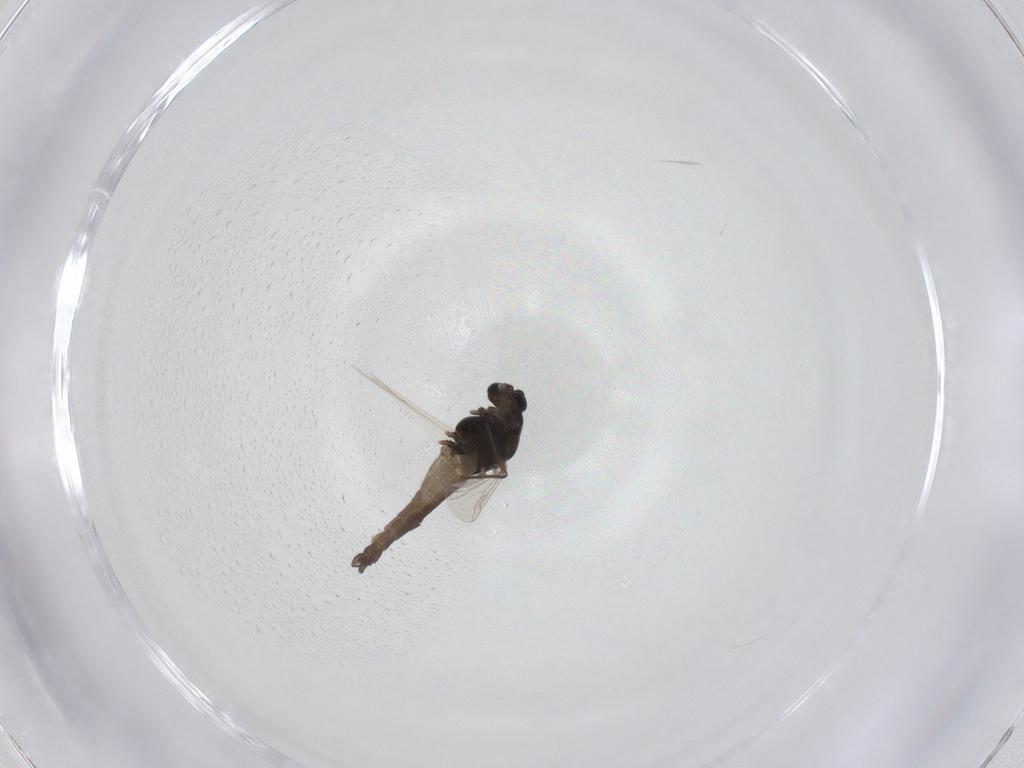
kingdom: Animalia
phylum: Arthropoda
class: Insecta
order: Diptera
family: Chironomidae
